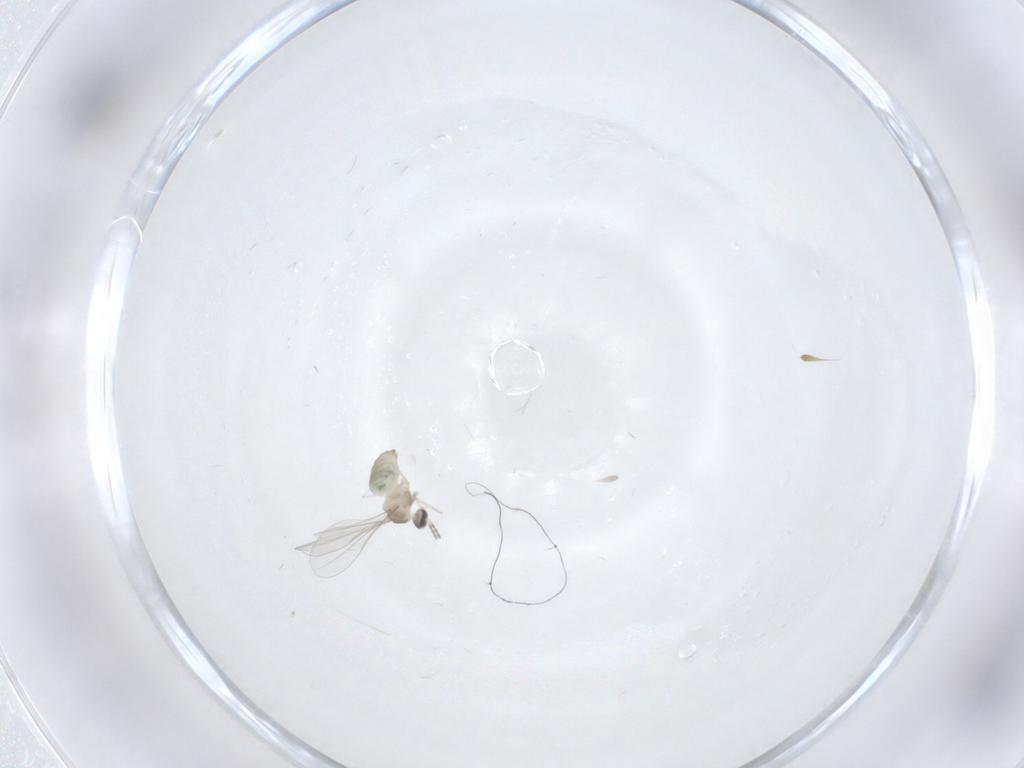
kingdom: Animalia
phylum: Arthropoda
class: Insecta
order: Diptera
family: Cecidomyiidae
